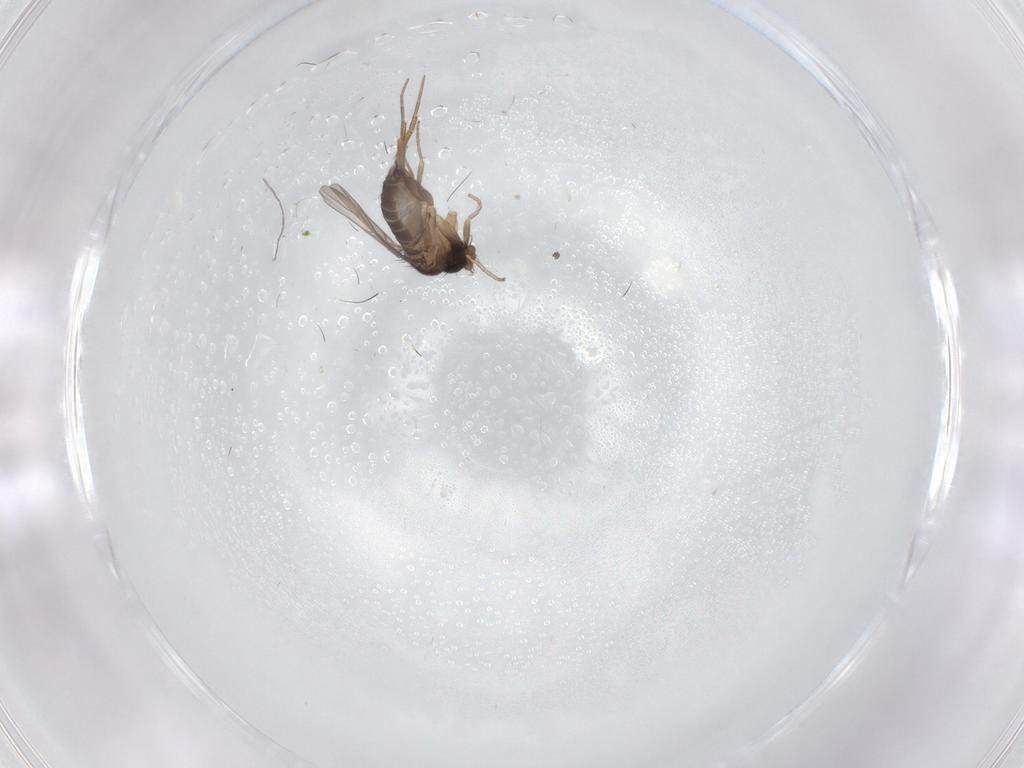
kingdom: Animalia
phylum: Arthropoda
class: Insecta
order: Diptera
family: Phoridae
